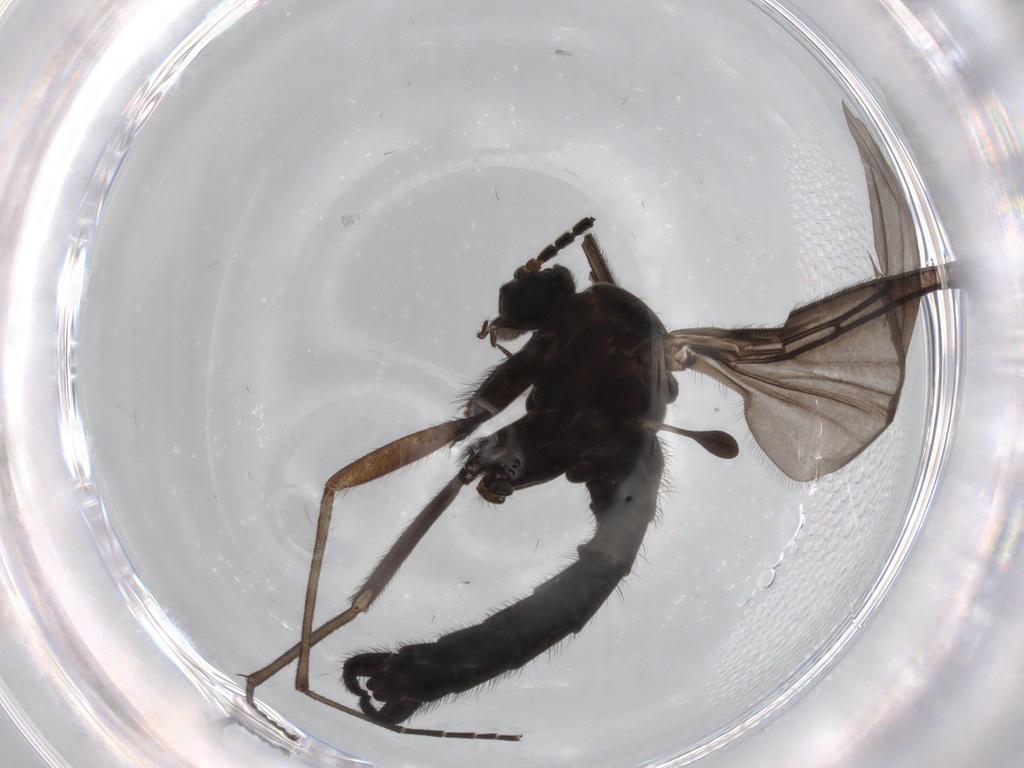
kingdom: Animalia
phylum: Arthropoda
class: Insecta
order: Diptera
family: Sciaridae
